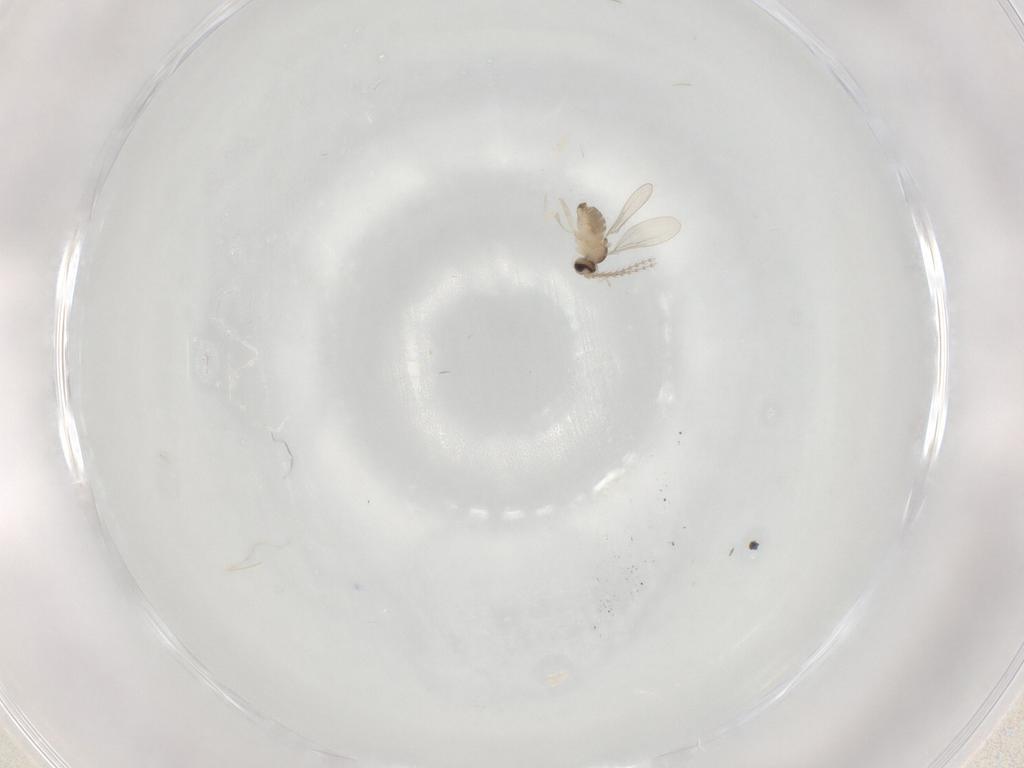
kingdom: Animalia
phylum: Arthropoda
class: Insecta
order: Diptera
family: Cecidomyiidae
